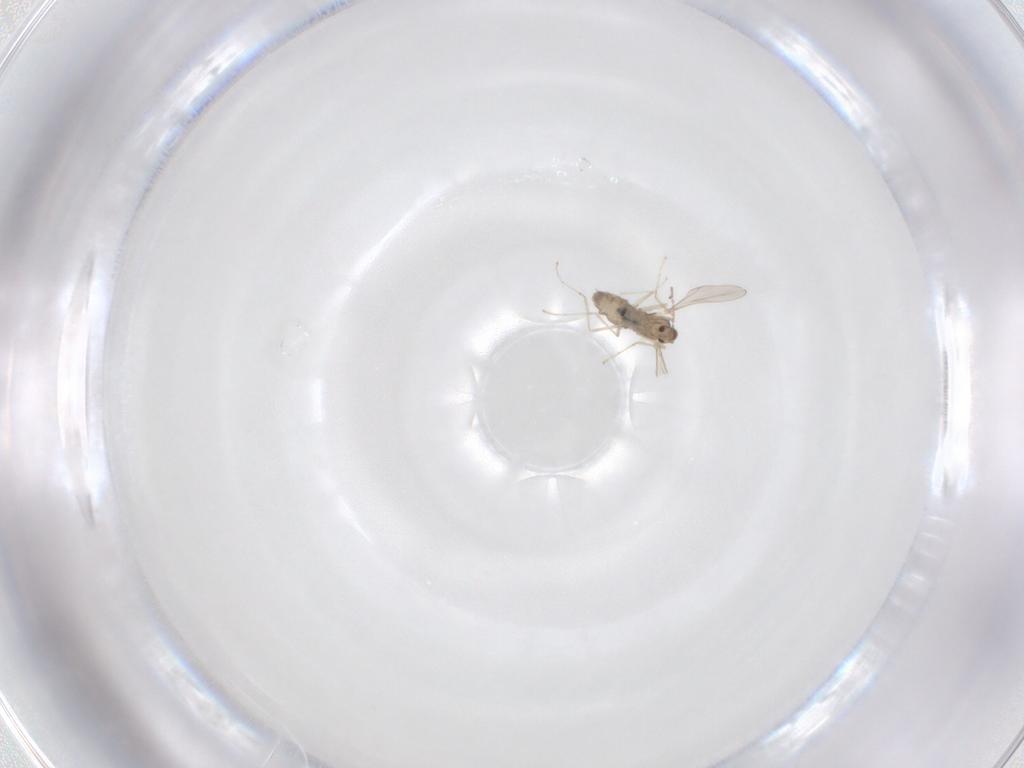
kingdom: Animalia
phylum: Arthropoda
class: Insecta
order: Diptera
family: Cecidomyiidae
